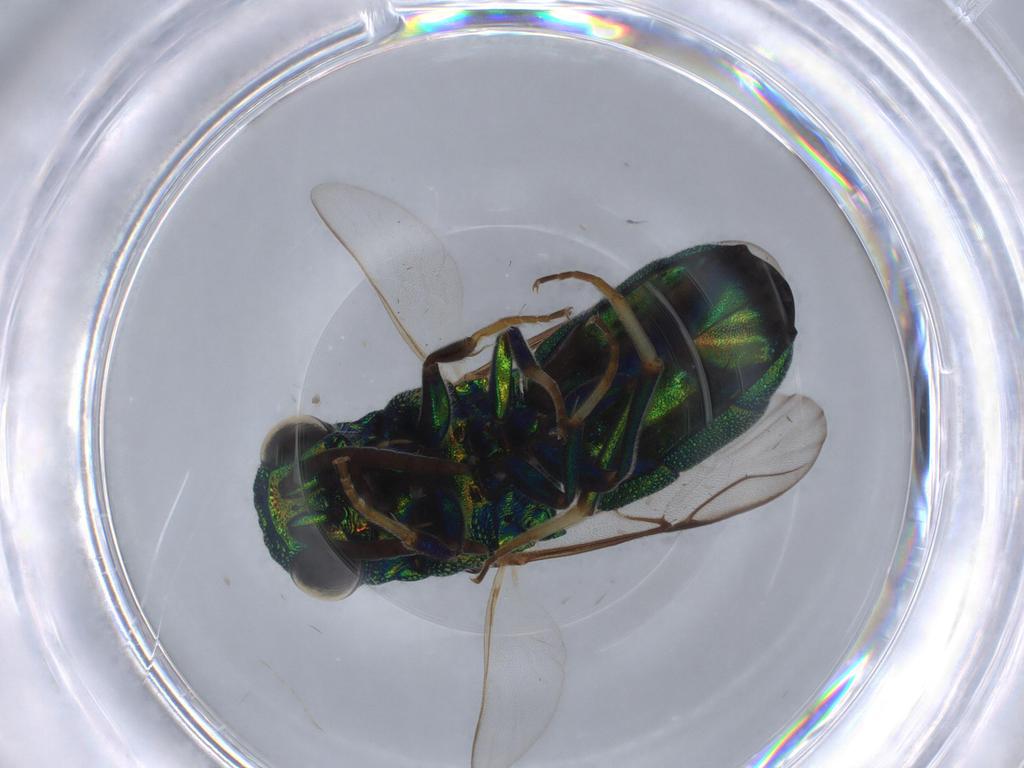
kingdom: Animalia
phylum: Arthropoda
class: Insecta
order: Hymenoptera
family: Chrysididae
